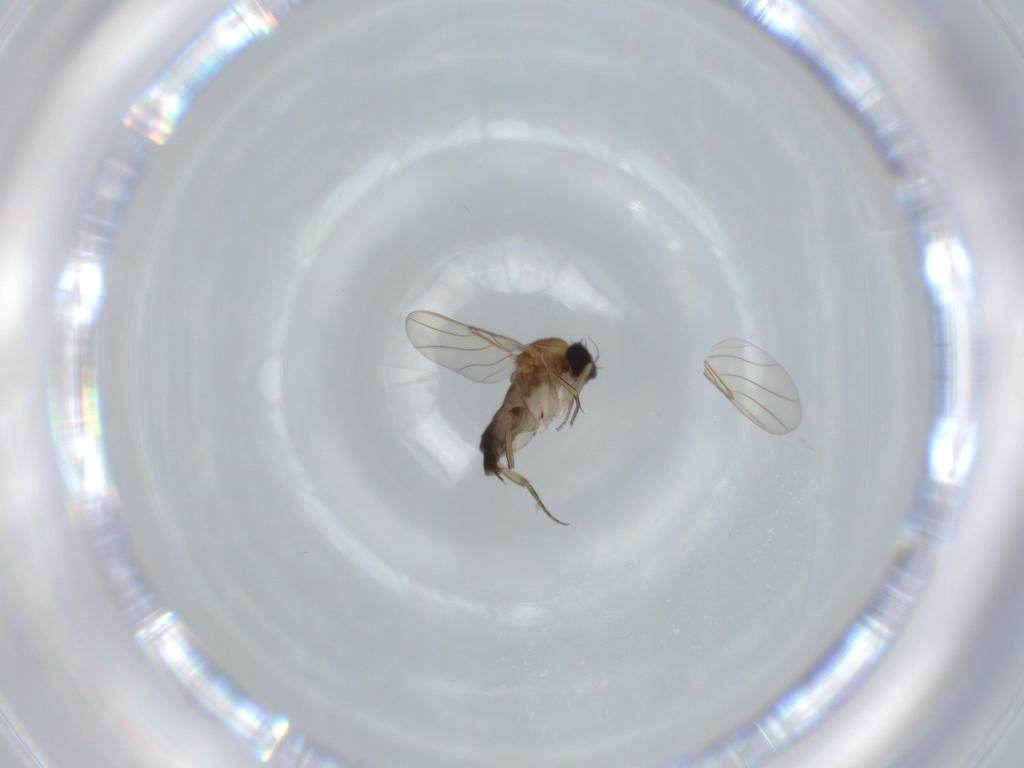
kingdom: Animalia
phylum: Arthropoda
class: Insecta
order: Diptera
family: Phoridae
